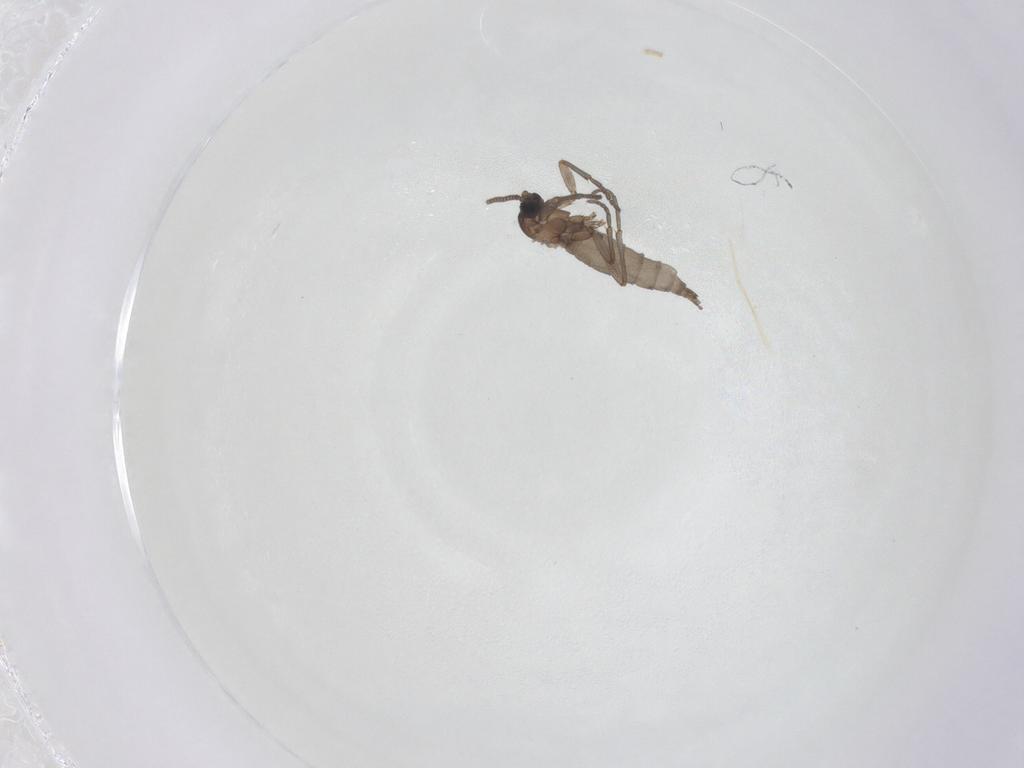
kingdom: Animalia
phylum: Arthropoda
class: Insecta
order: Diptera
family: Sciaridae
